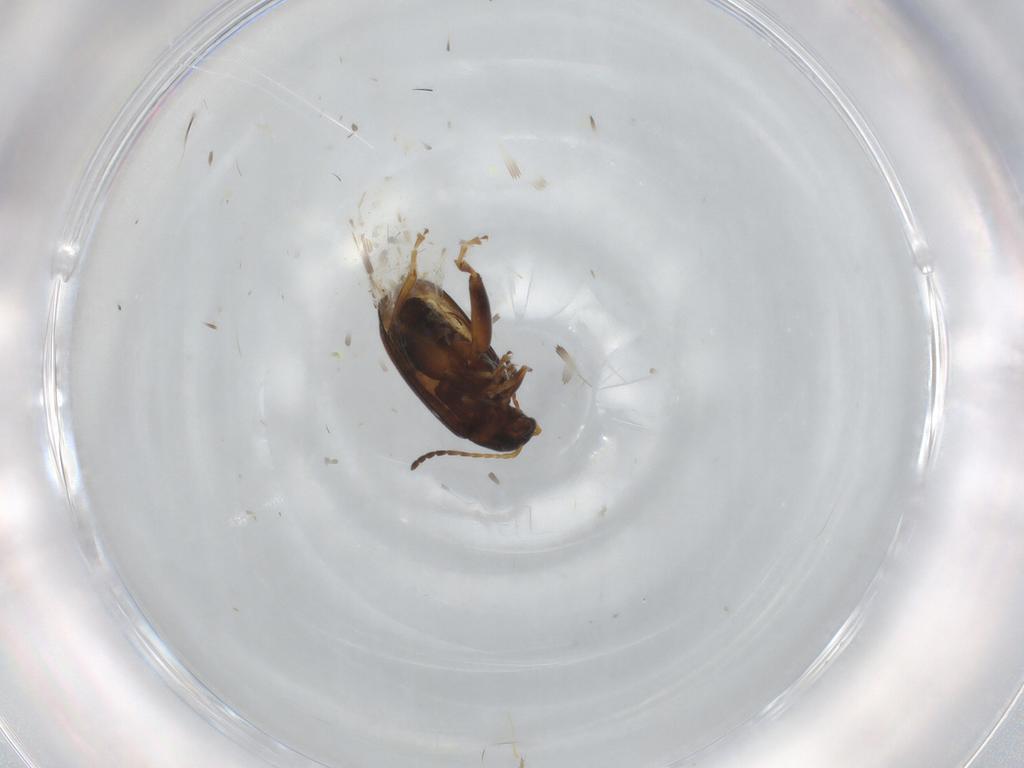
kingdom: Animalia
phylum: Arthropoda
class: Insecta
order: Coleoptera
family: Chrysomelidae
